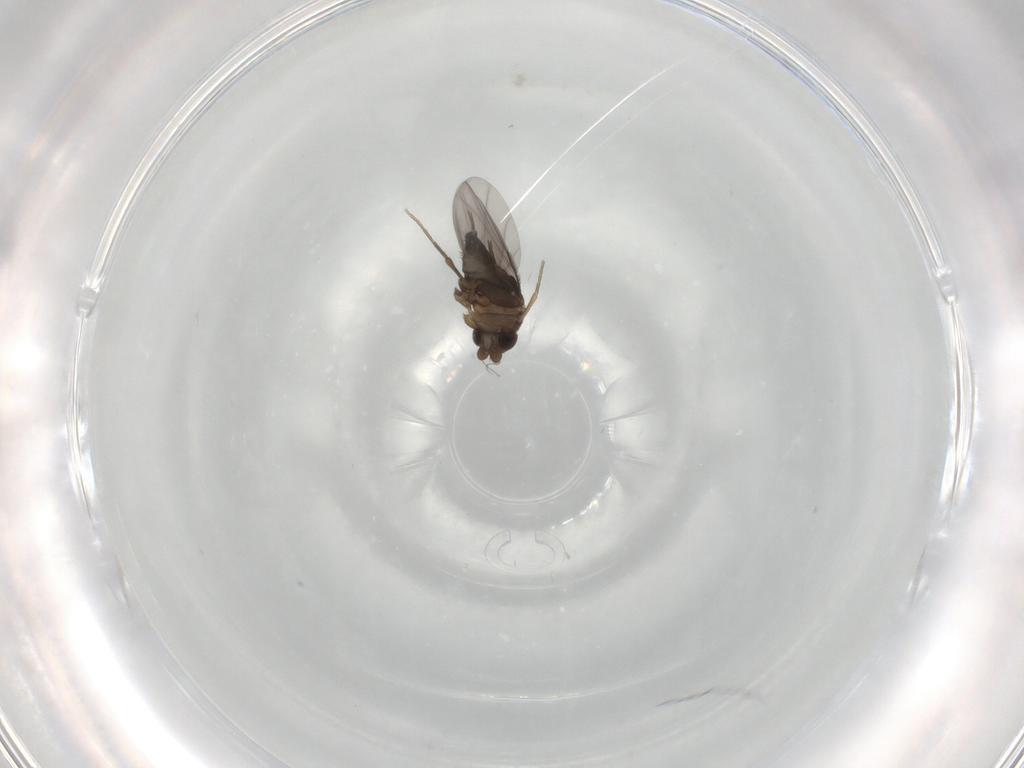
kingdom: Animalia
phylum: Arthropoda
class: Insecta
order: Diptera
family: Phoridae
